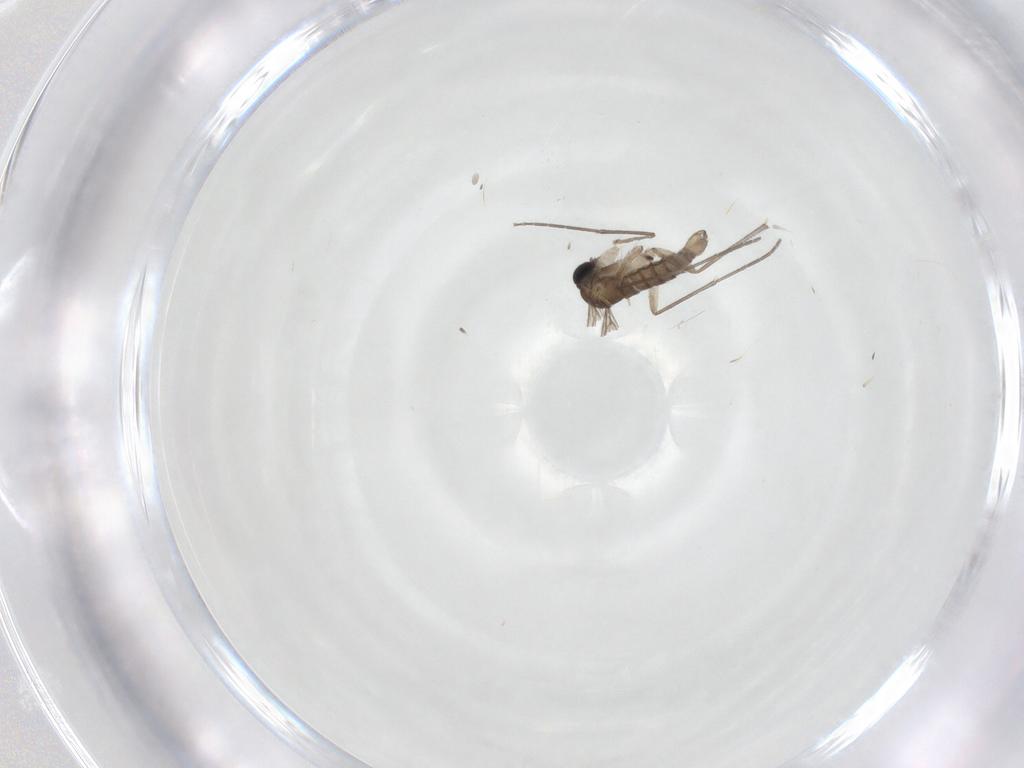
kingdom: Animalia
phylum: Arthropoda
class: Insecta
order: Diptera
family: Sciaridae
